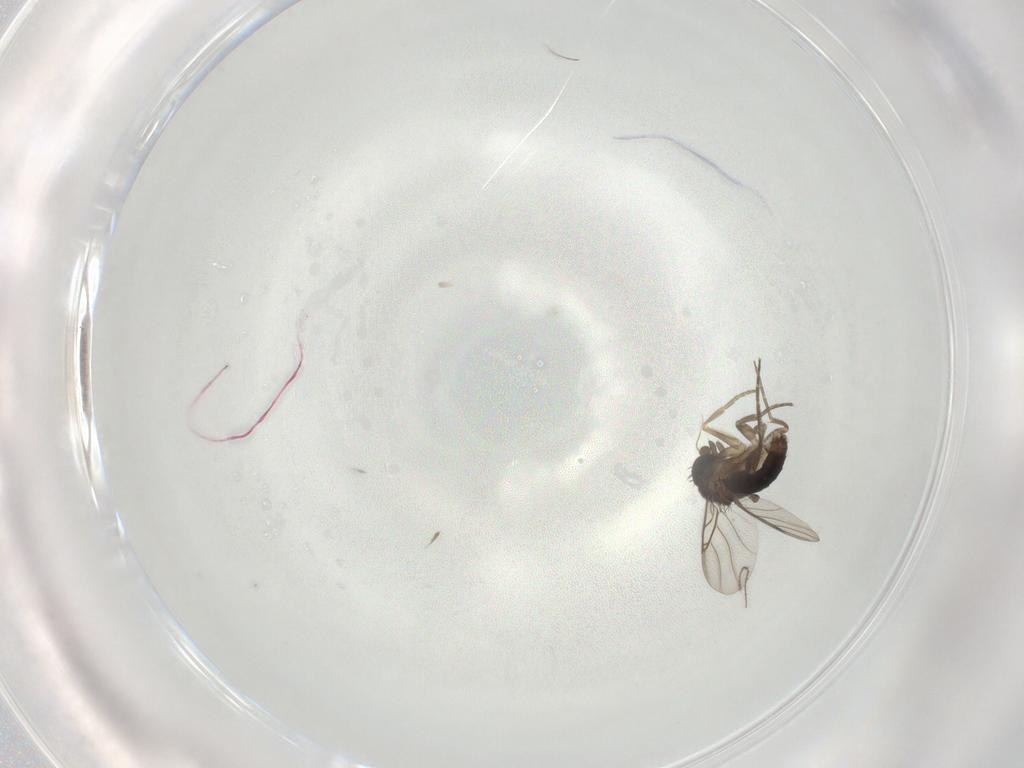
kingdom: Animalia
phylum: Arthropoda
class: Insecta
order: Diptera
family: Phoridae
